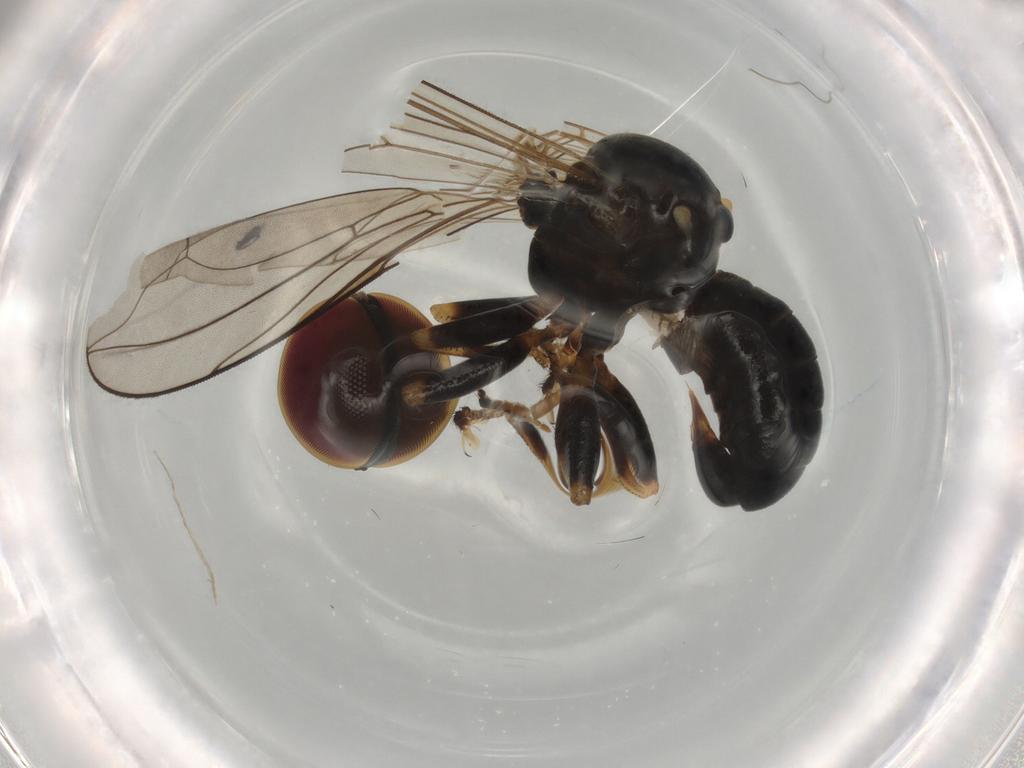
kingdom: Animalia
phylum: Arthropoda
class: Insecta
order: Diptera
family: Pipunculidae
